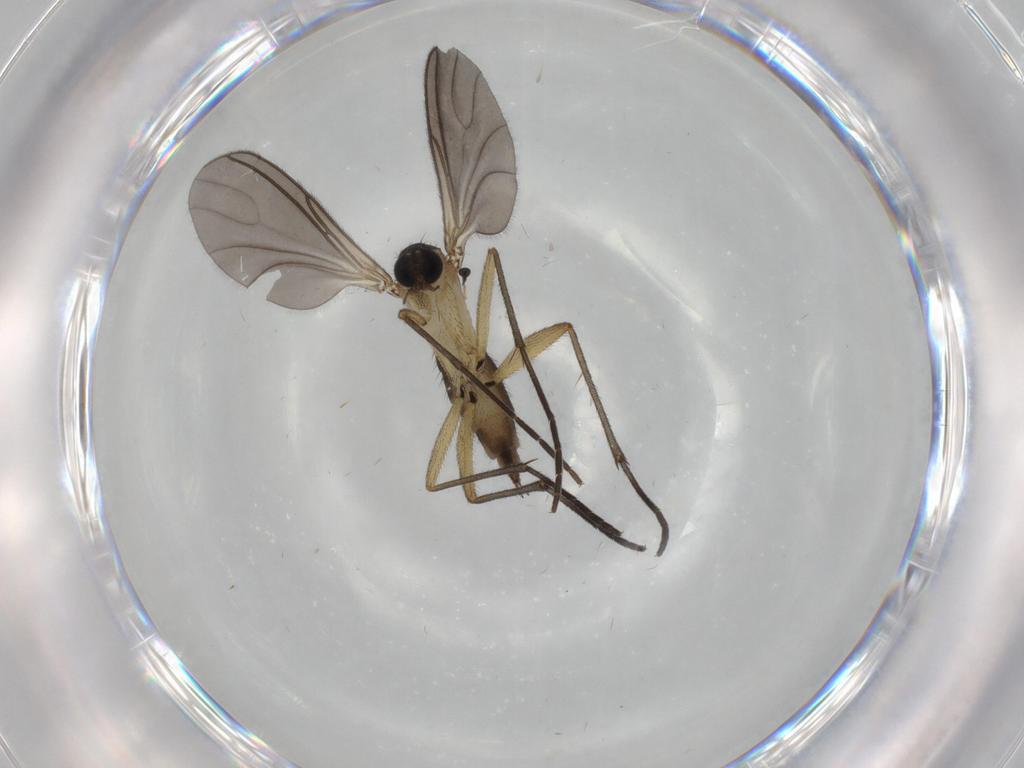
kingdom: Animalia
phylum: Arthropoda
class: Insecta
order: Diptera
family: Sciaridae
